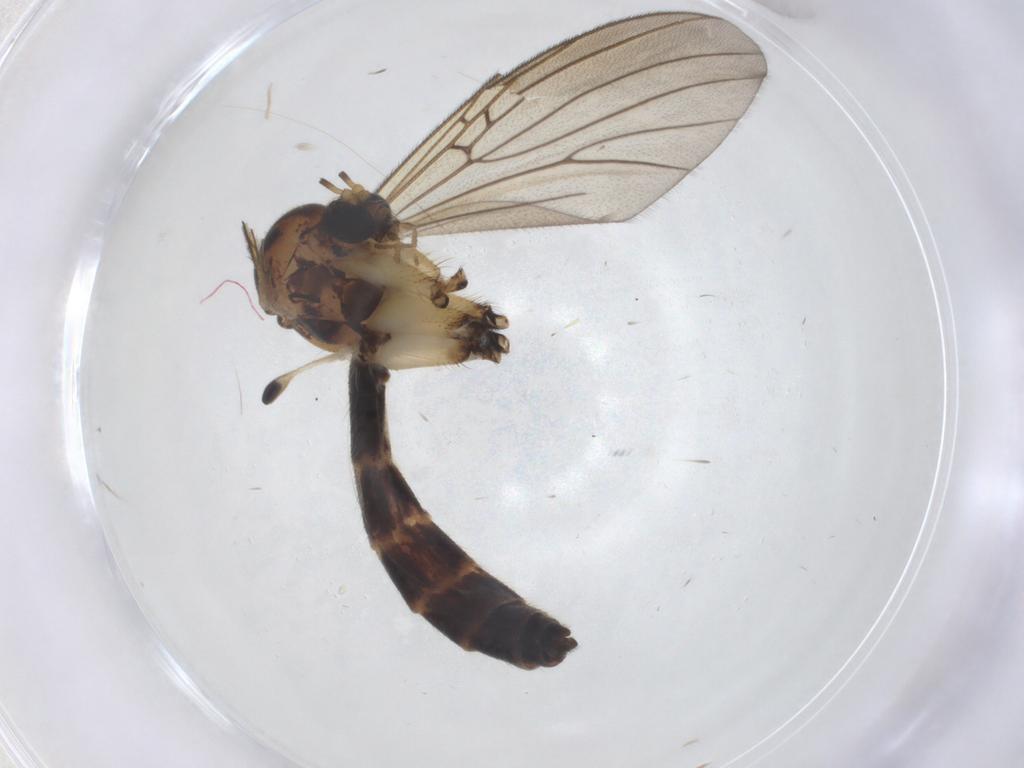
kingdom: Animalia
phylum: Arthropoda
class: Insecta
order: Diptera
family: Mycetophilidae
